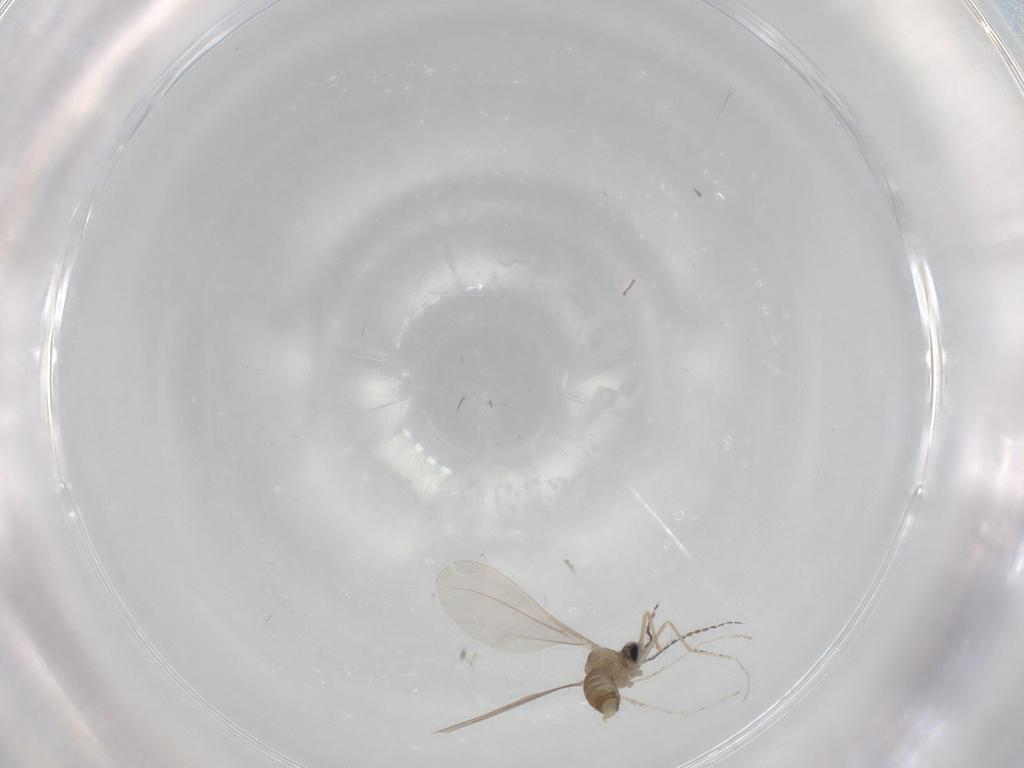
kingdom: Animalia
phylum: Arthropoda
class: Insecta
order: Diptera
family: Cecidomyiidae
